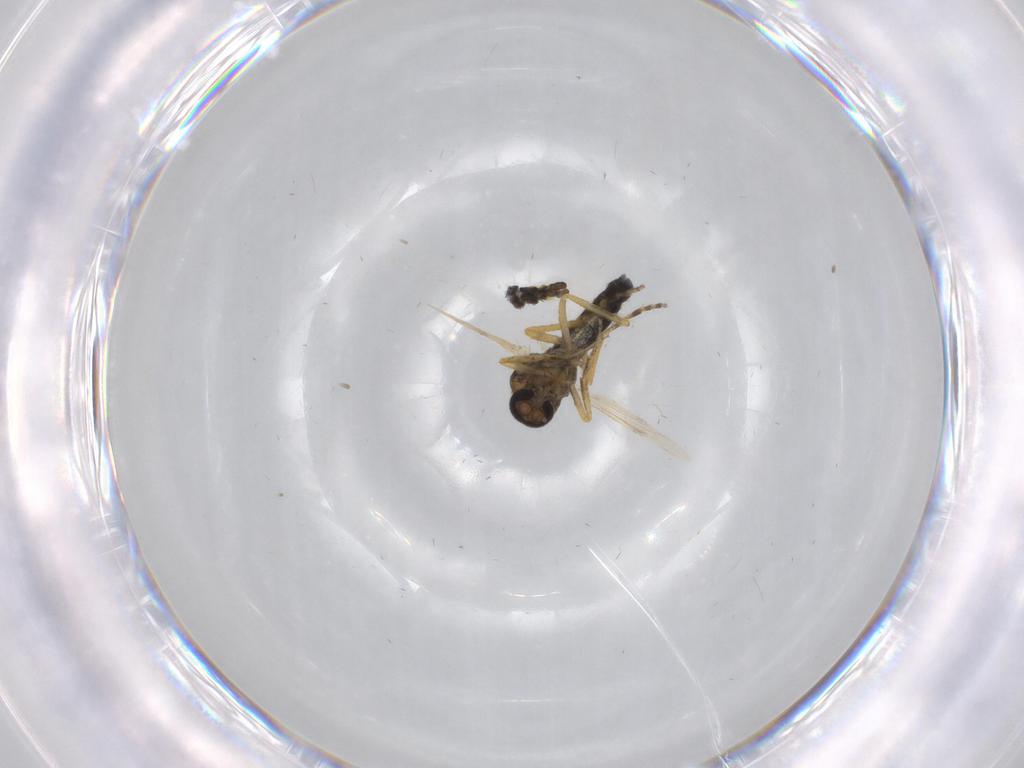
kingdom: Animalia
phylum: Arthropoda
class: Insecta
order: Diptera
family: Ceratopogonidae
